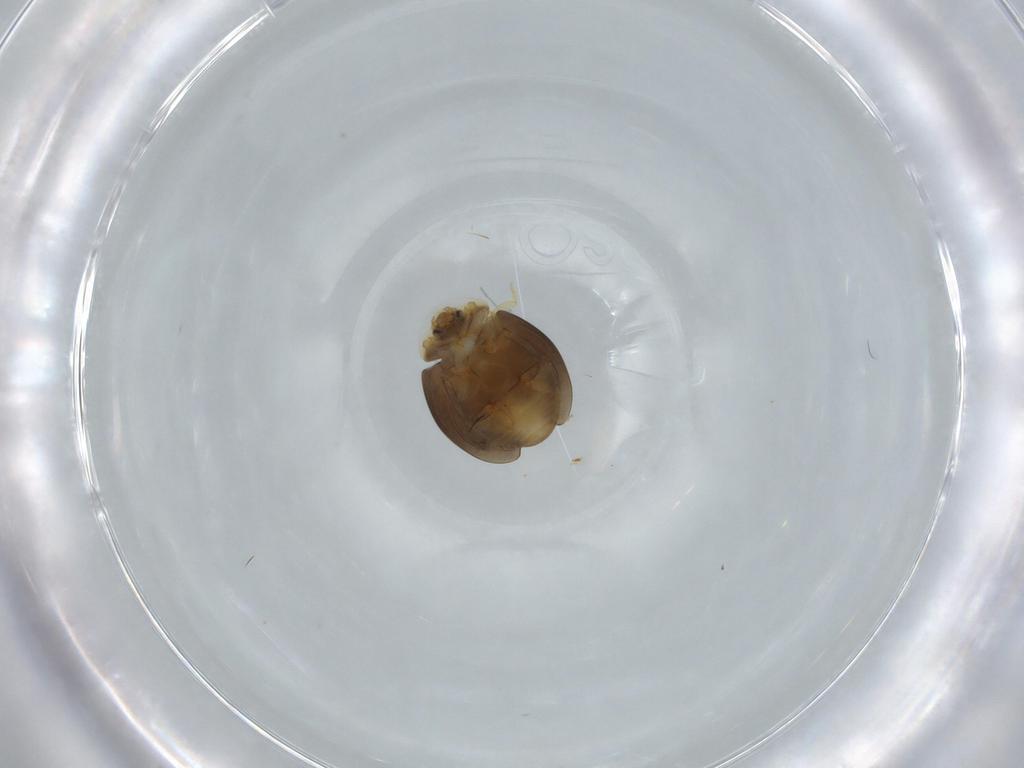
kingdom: Animalia
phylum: Arthropoda
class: Insecta
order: Coleoptera
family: Corylophidae
